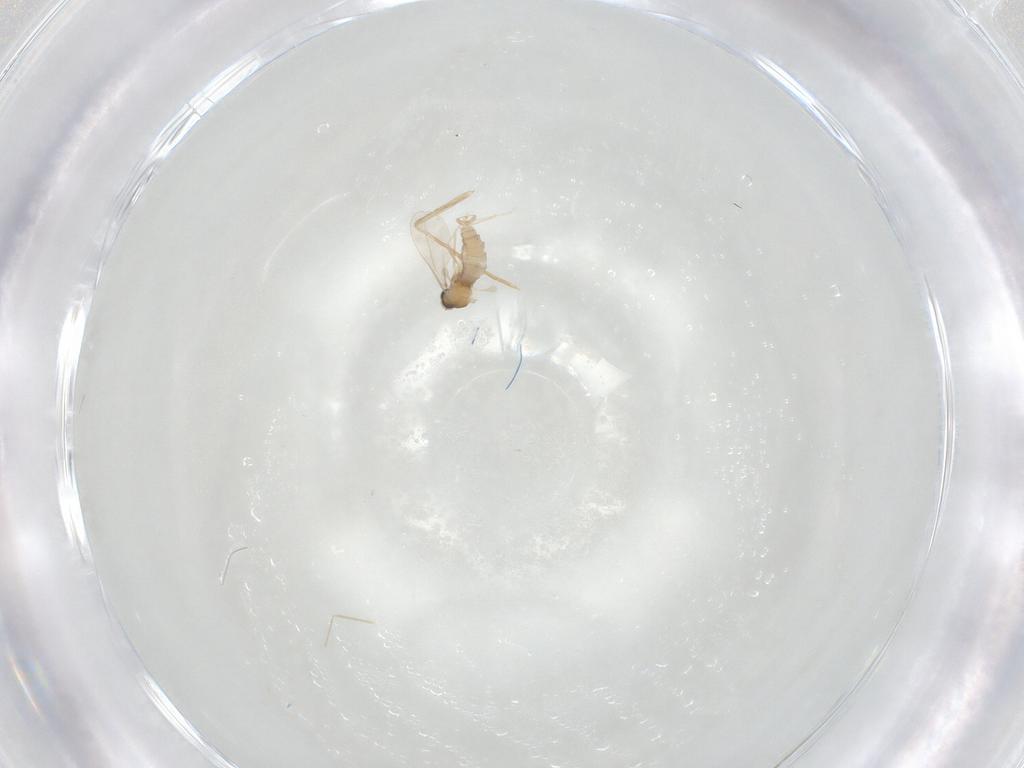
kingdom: Animalia
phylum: Arthropoda
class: Insecta
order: Diptera
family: Cecidomyiidae
